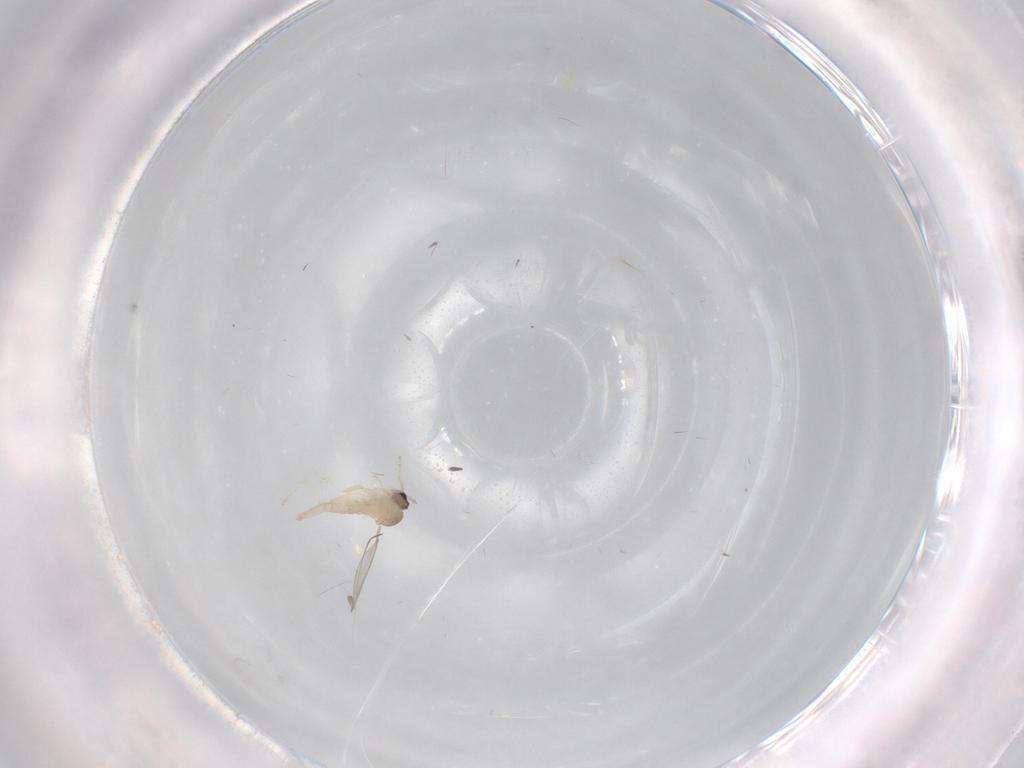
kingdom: Animalia
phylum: Arthropoda
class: Insecta
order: Diptera
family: Cecidomyiidae
